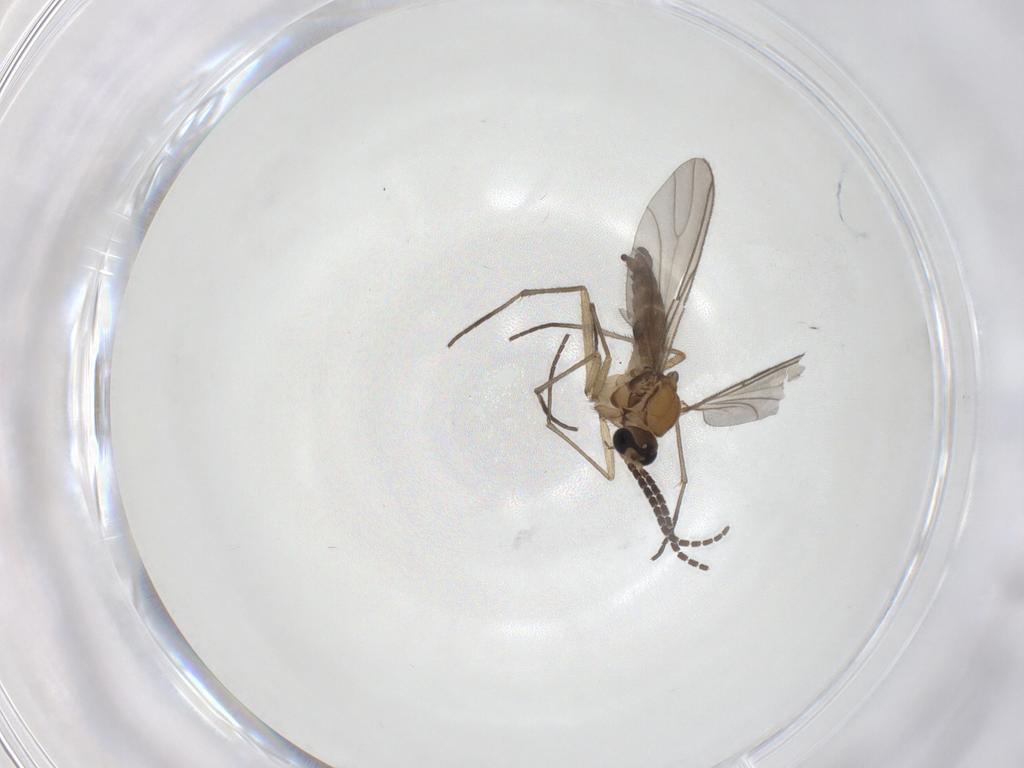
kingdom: Animalia
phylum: Arthropoda
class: Insecta
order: Diptera
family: Sciaridae
